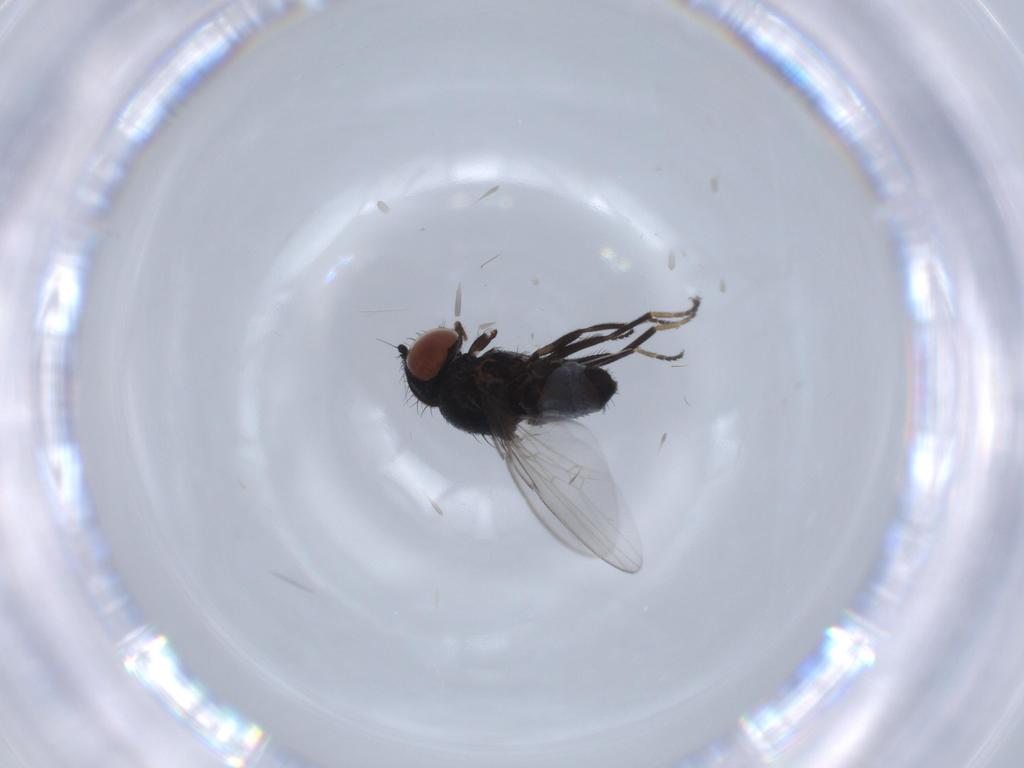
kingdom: Animalia
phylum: Arthropoda
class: Insecta
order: Diptera
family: Milichiidae
